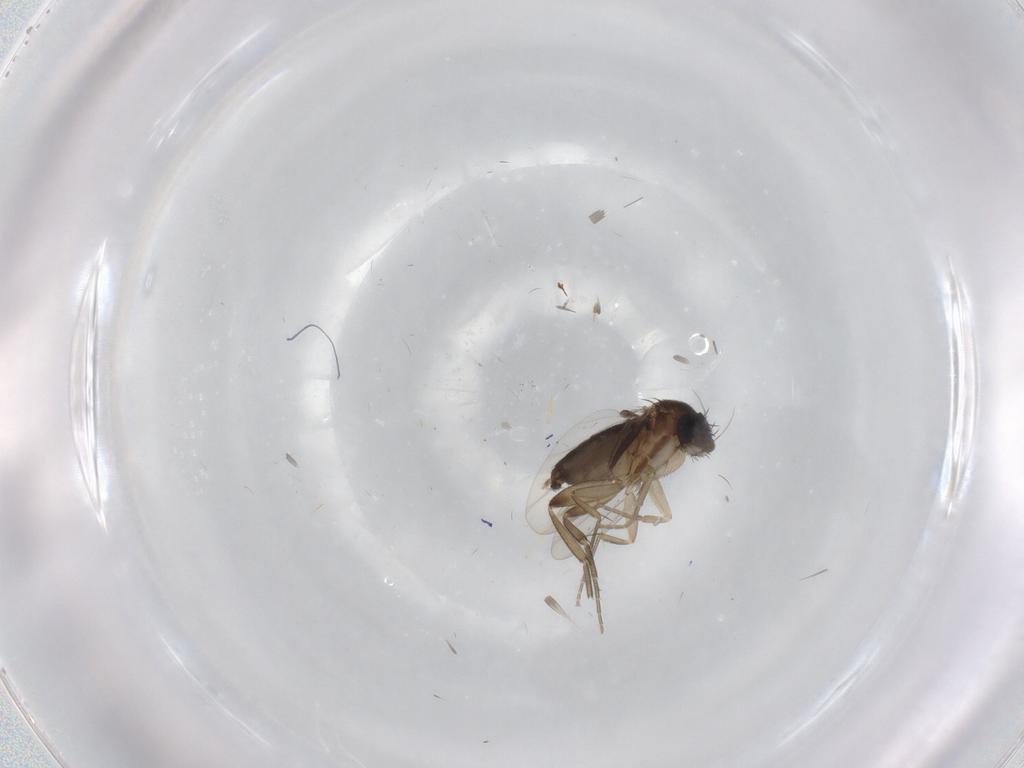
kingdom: Animalia
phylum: Arthropoda
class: Insecta
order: Diptera
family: Phoridae
